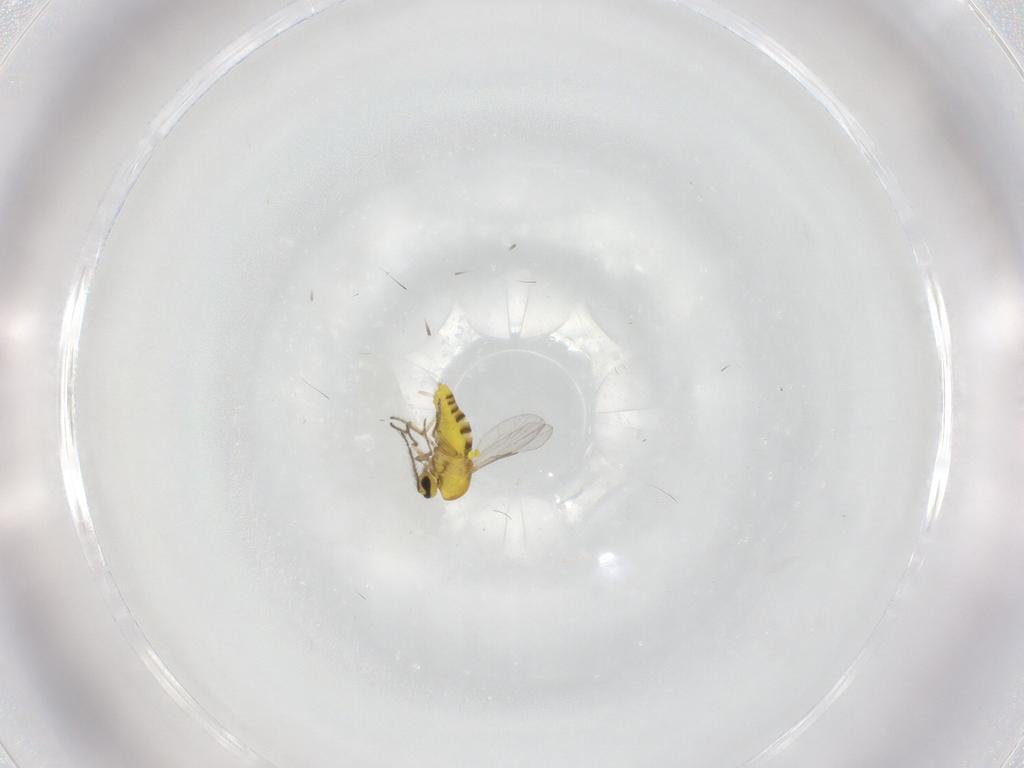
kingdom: Animalia
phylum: Arthropoda
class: Insecta
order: Diptera
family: Ceratopogonidae
